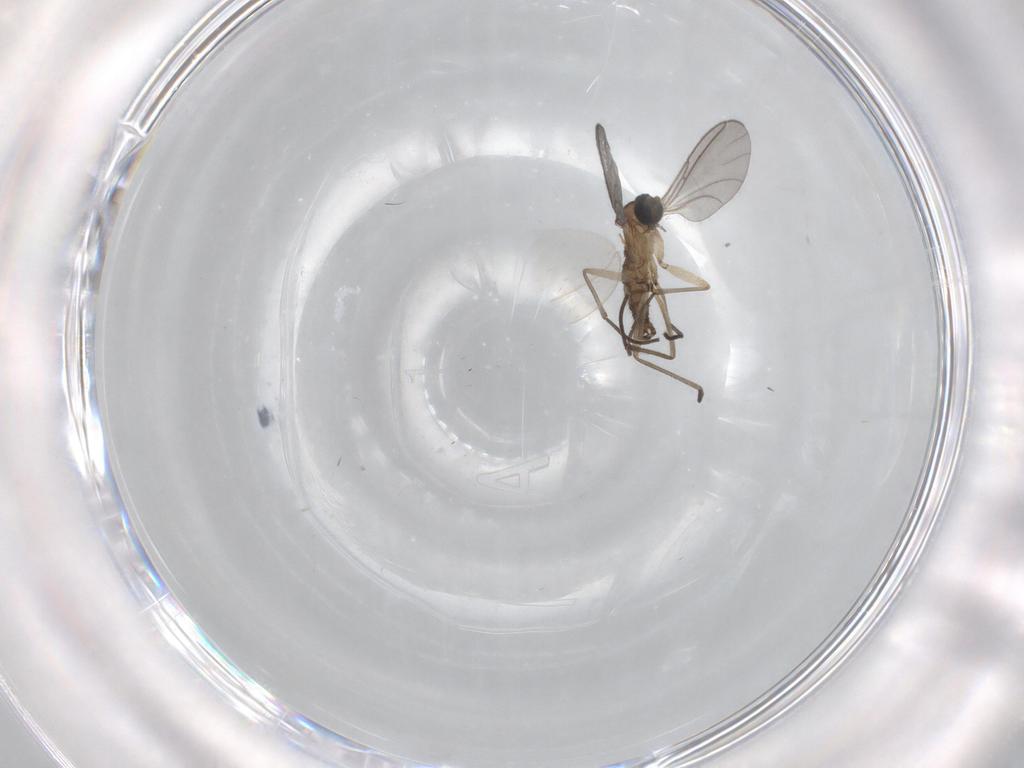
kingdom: Animalia
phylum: Arthropoda
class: Insecta
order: Diptera
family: Sciaridae
